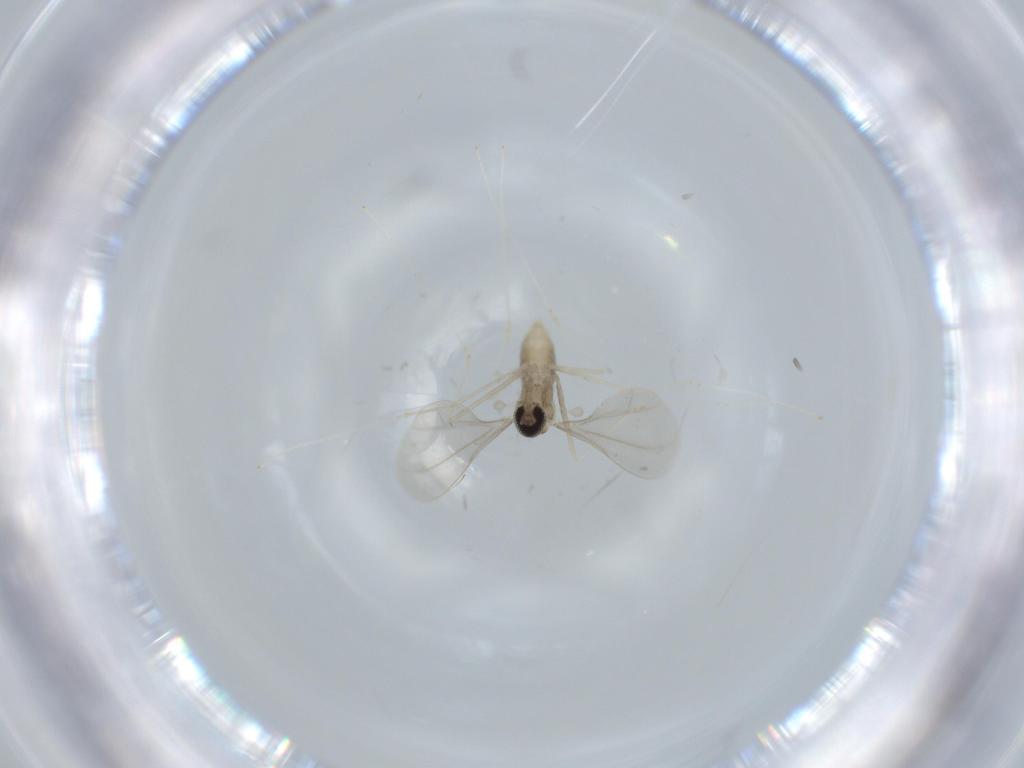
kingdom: Animalia
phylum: Arthropoda
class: Insecta
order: Diptera
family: Cecidomyiidae
